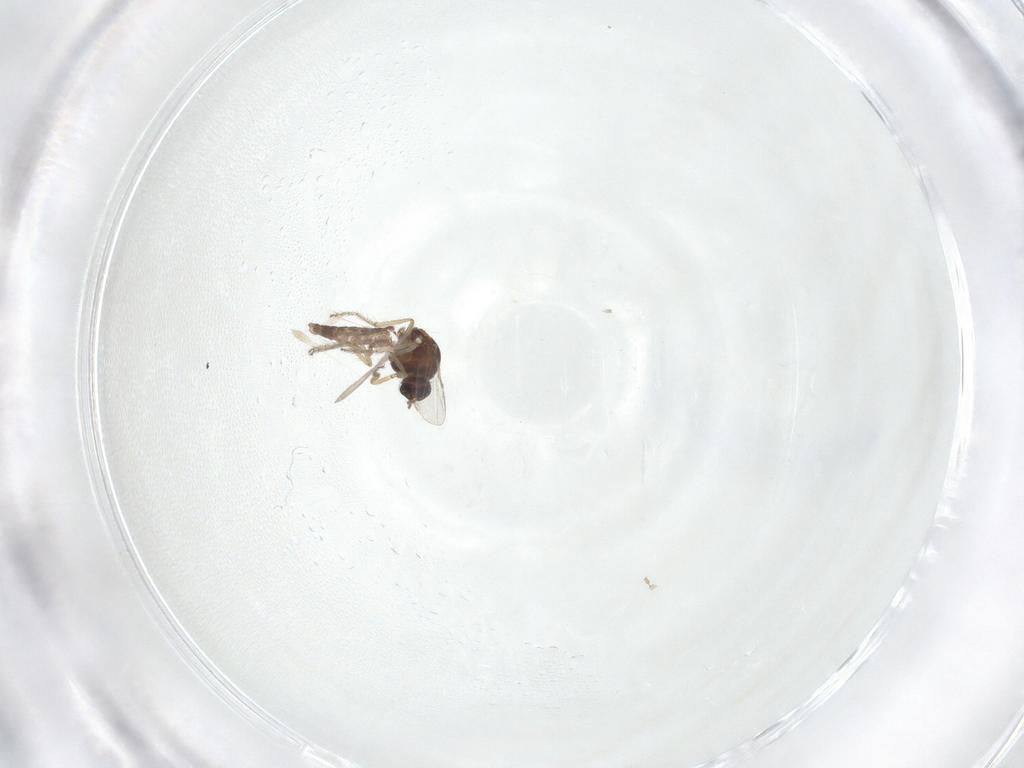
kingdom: Animalia
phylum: Arthropoda
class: Insecta
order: Diptera
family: Ceratopogonidae
